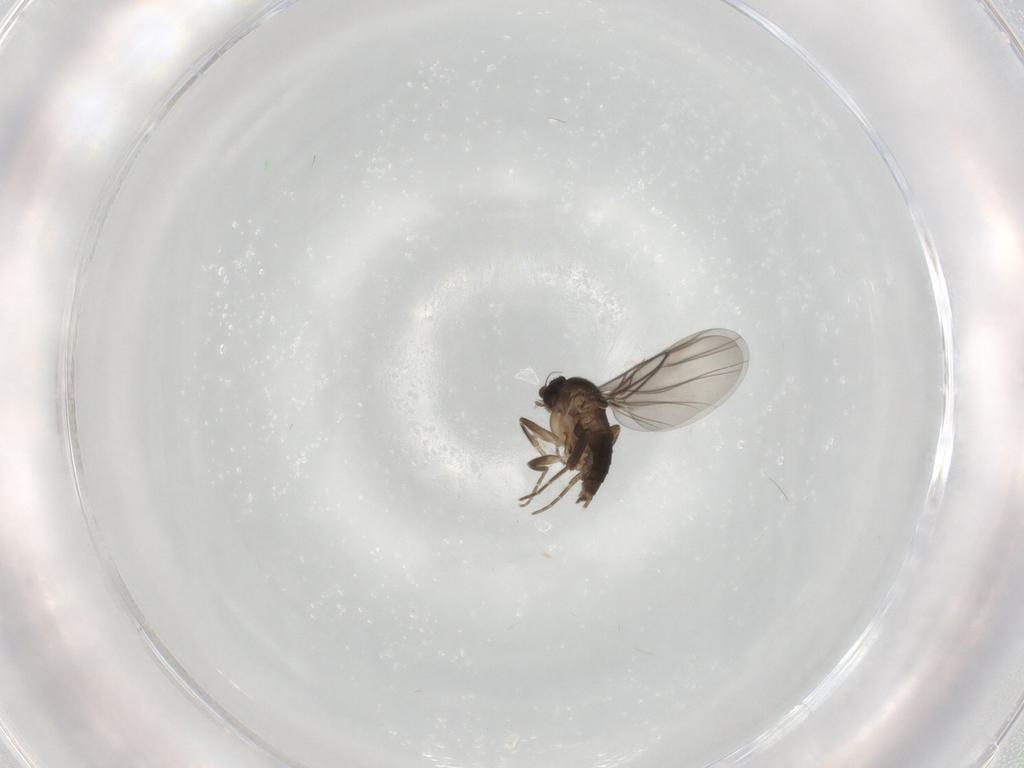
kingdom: Animalia
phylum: Arthropoda
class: Insecta
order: Diptera
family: Phoridae
